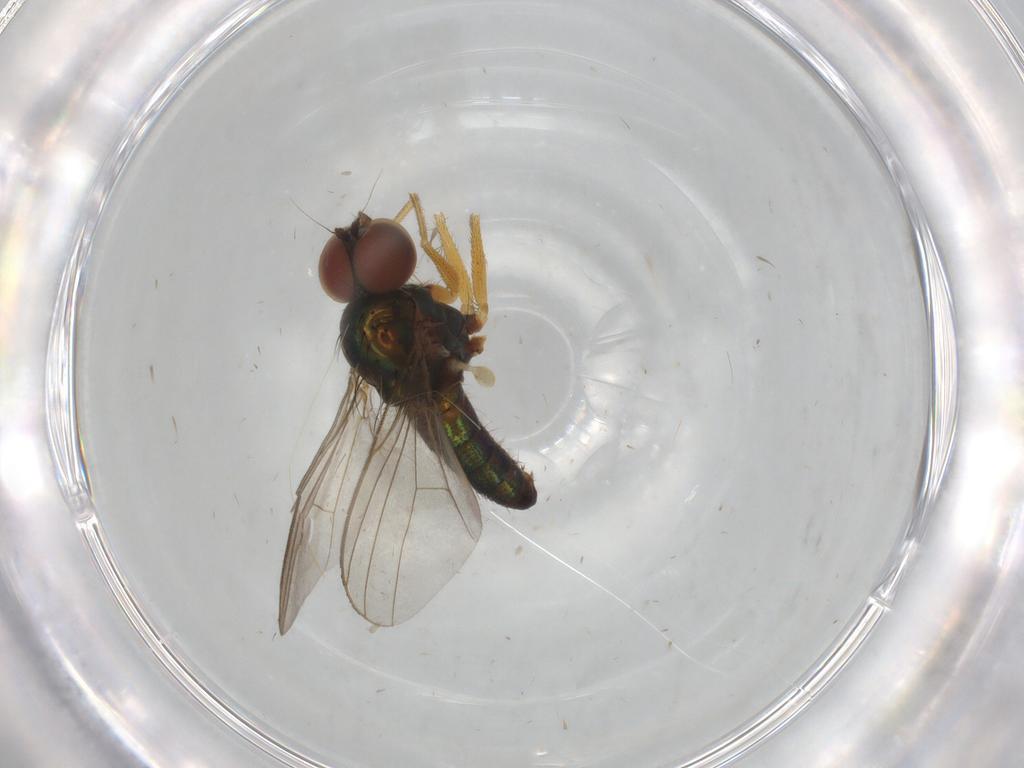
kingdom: Animalia
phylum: Arthropoda
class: Insecta
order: Diptera
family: Dolichopodidae
